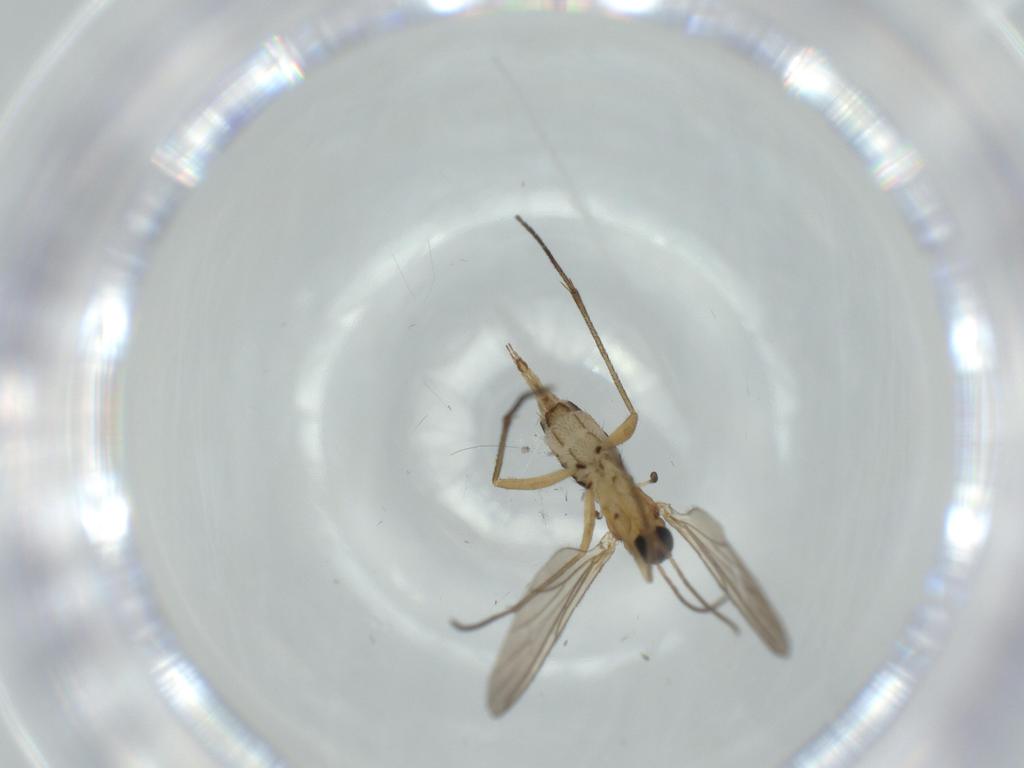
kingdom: Animalia
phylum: Arthropoda
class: Insecta
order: Diptera
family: Sciaridae
